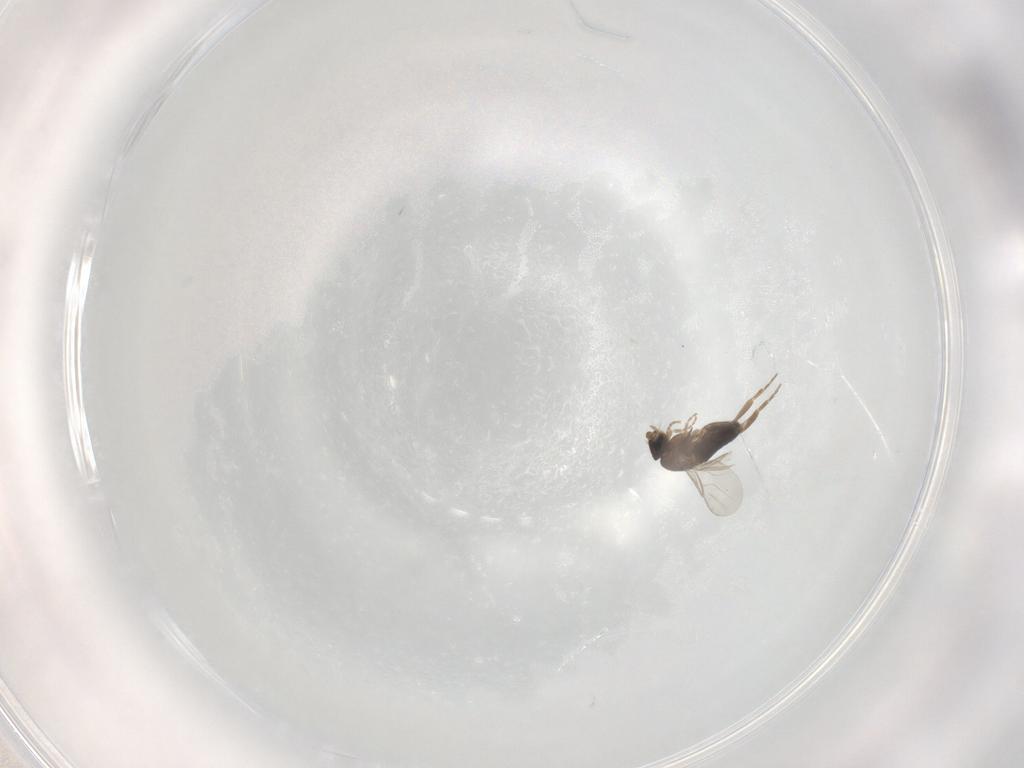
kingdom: Animalia
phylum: Arthropoda
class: Insecta
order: Diptera
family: Phoridae
